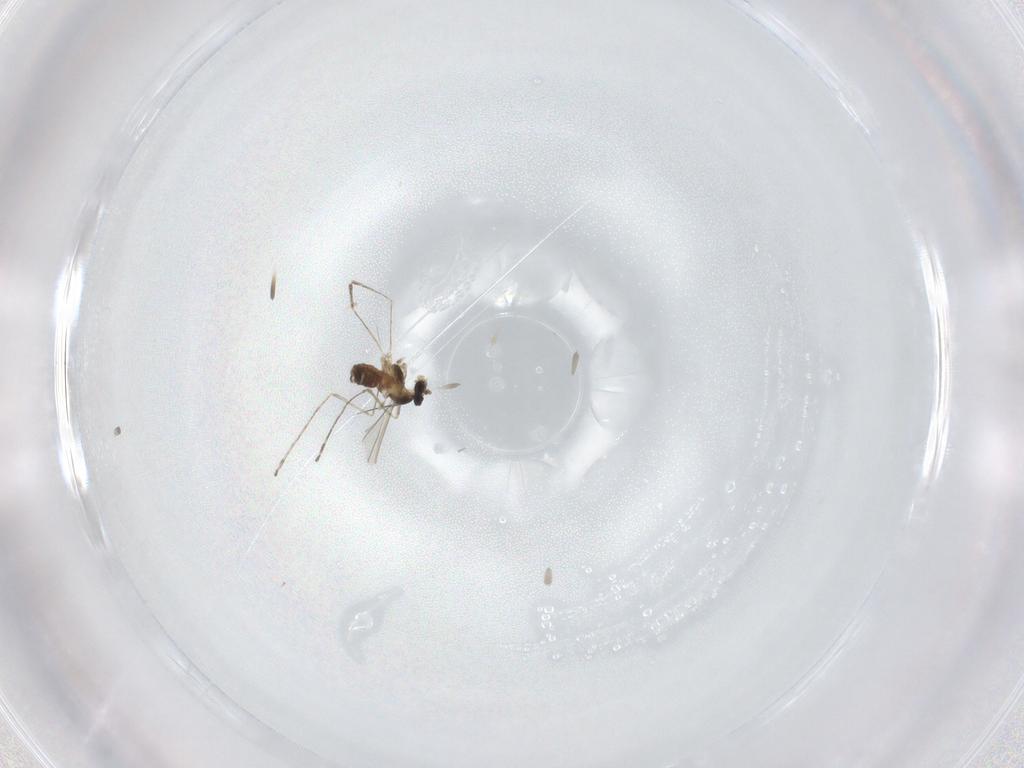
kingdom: Animalia
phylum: Arthropoda
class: Insecta
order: Diptera
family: Cecidomyiidae
